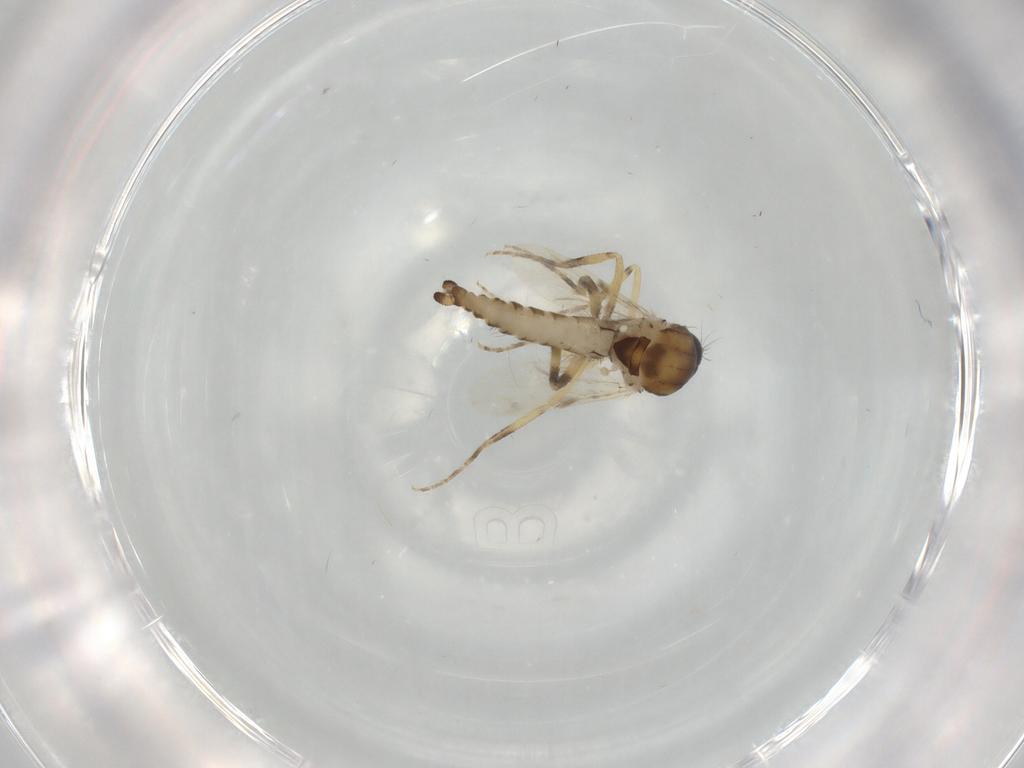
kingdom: Animalia
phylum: Arthropoda
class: Insecta
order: Diptera
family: Ceratopogonidae
